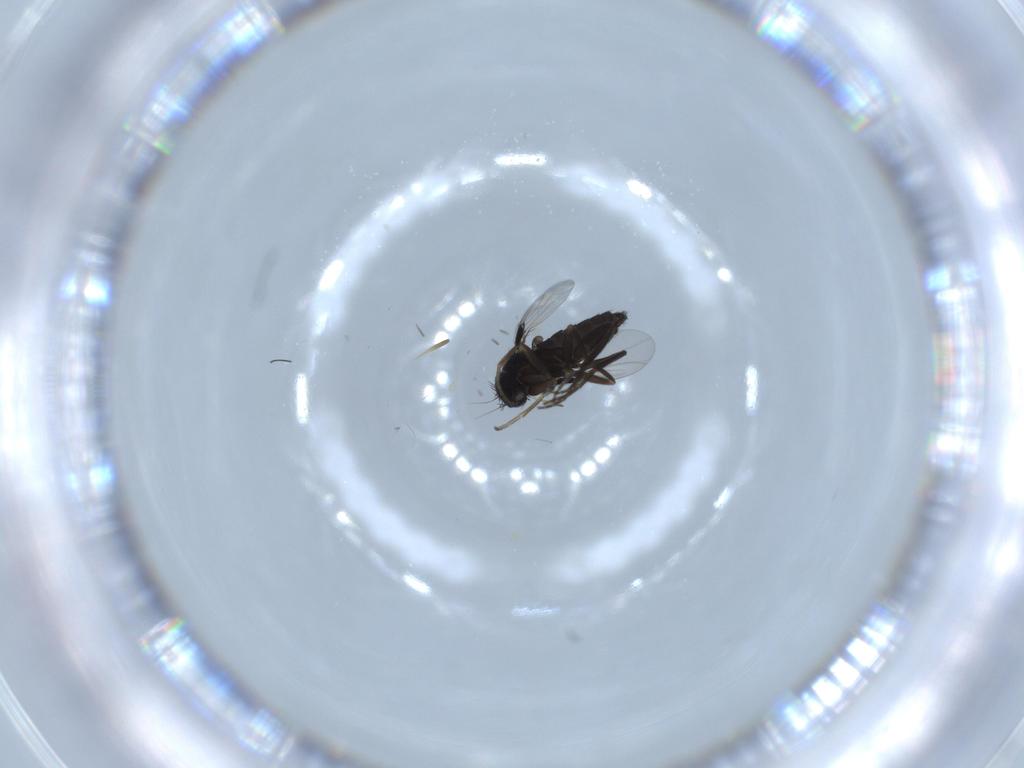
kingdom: Animalia
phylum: Arthropoda
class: Insecta
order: Diptera
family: Phoridae
